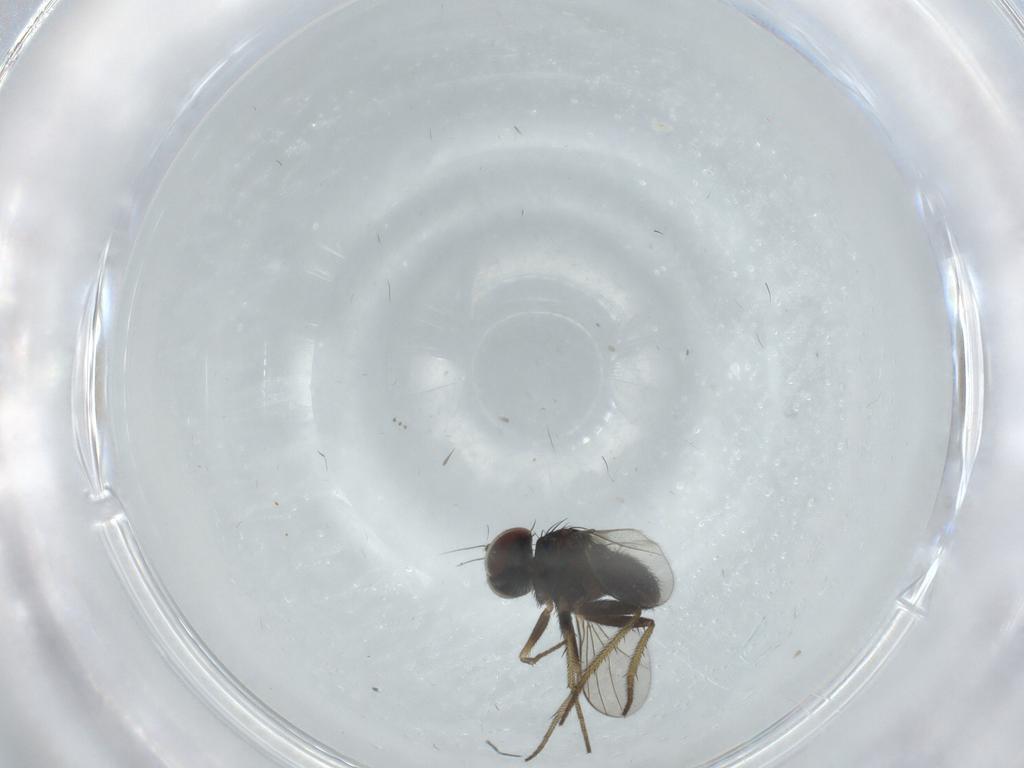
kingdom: Animalia
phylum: Arthropoda
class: Insecta
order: Diptera
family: Dolichopodidae
